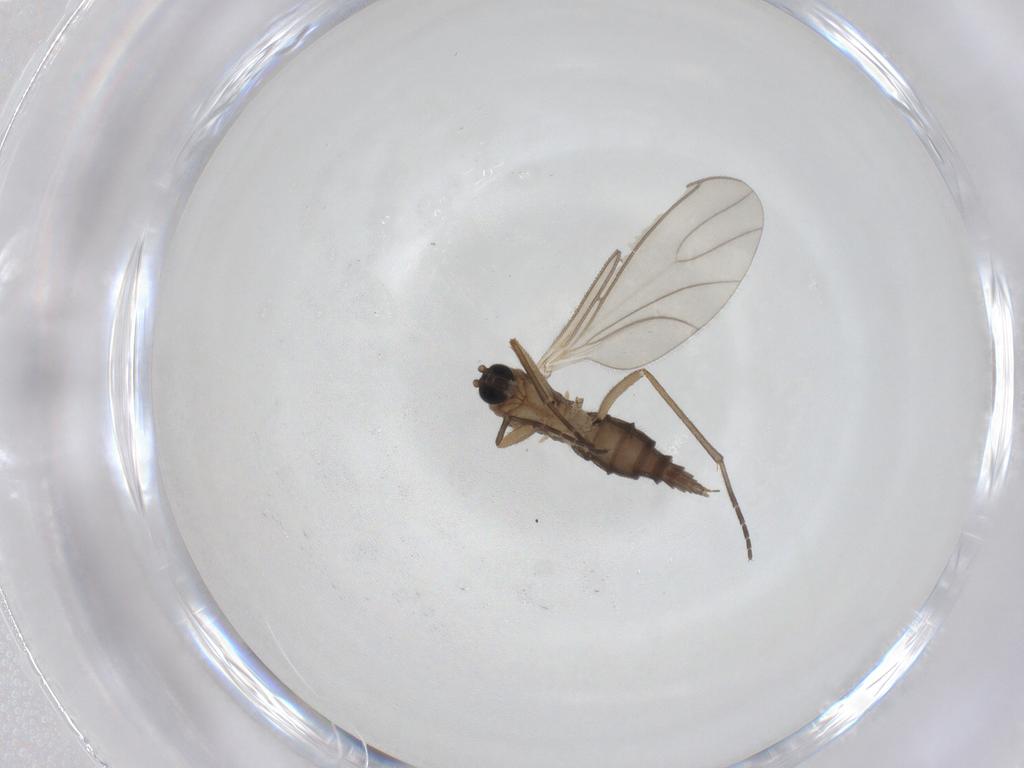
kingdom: Animalia
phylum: Arthropoda
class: Insecta
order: Diptera
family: Sciaridae
